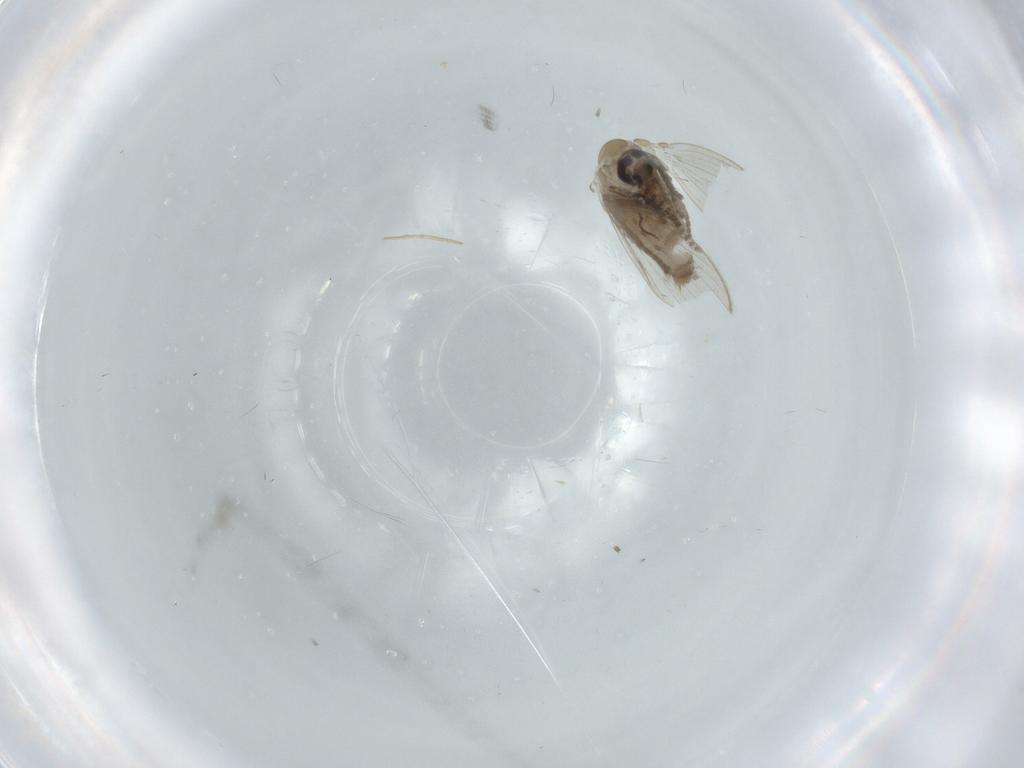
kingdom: Animalia
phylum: Arthropoda
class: Insecta
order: Diptera
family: Psychodidae
